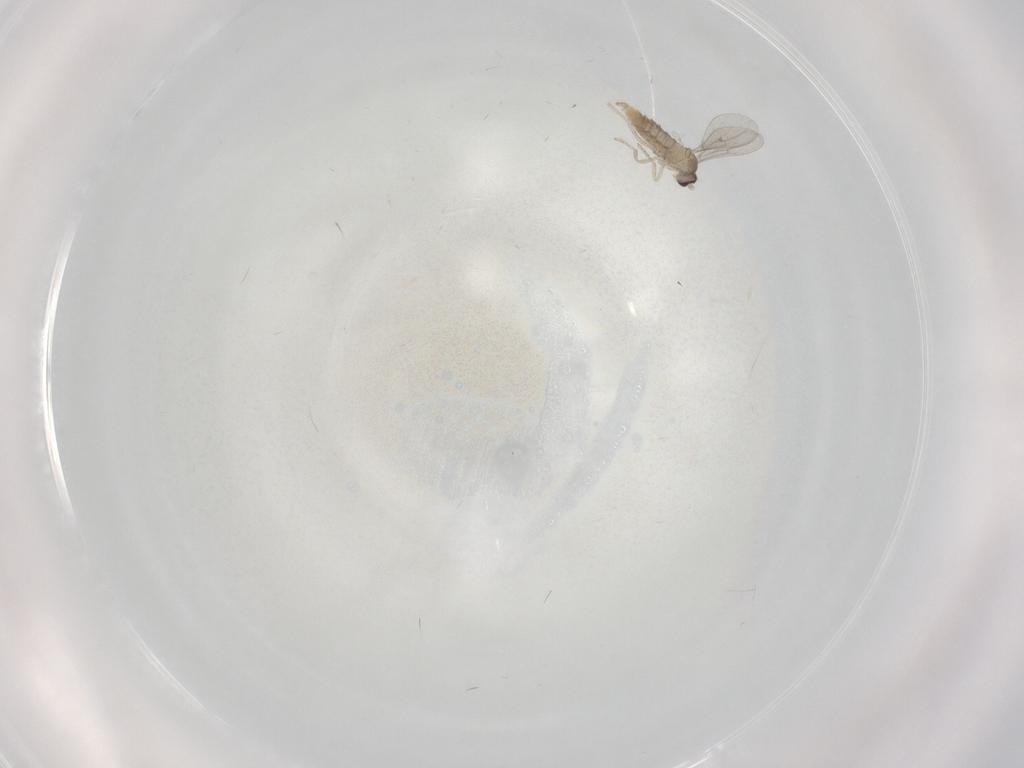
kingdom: Animalia
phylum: Arthropoda
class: Insecta
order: Diptera
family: Cecidomyiidae
